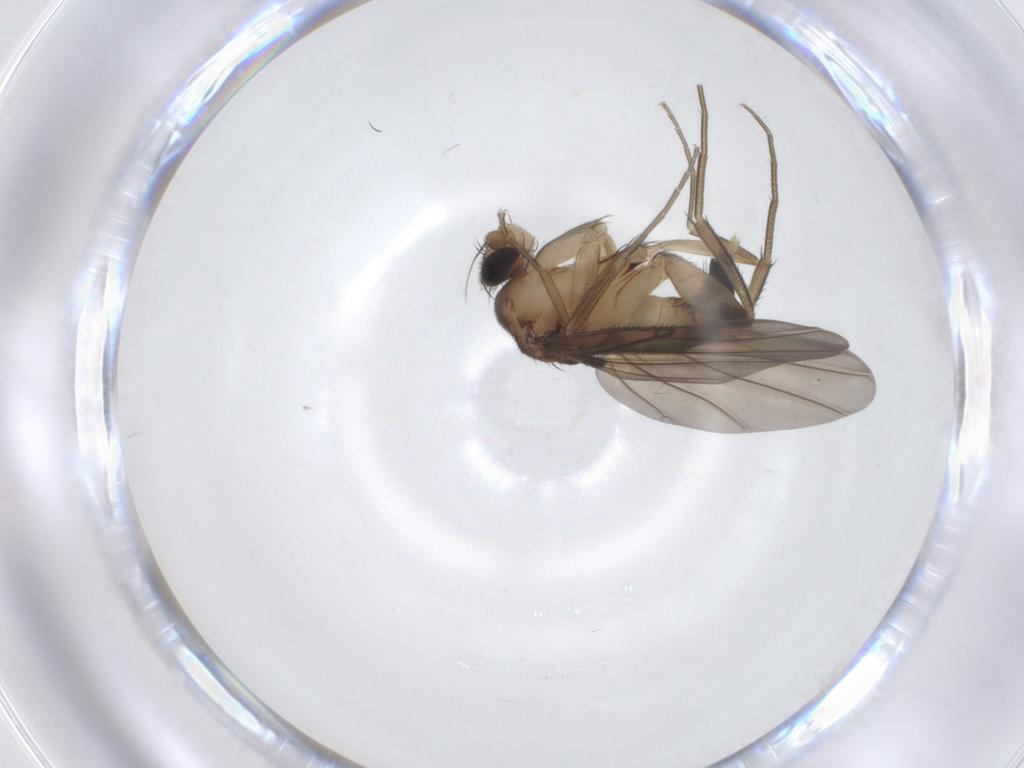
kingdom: Animalia
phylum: Arthropoda
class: Insecta
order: Diptera
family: Phoridae
